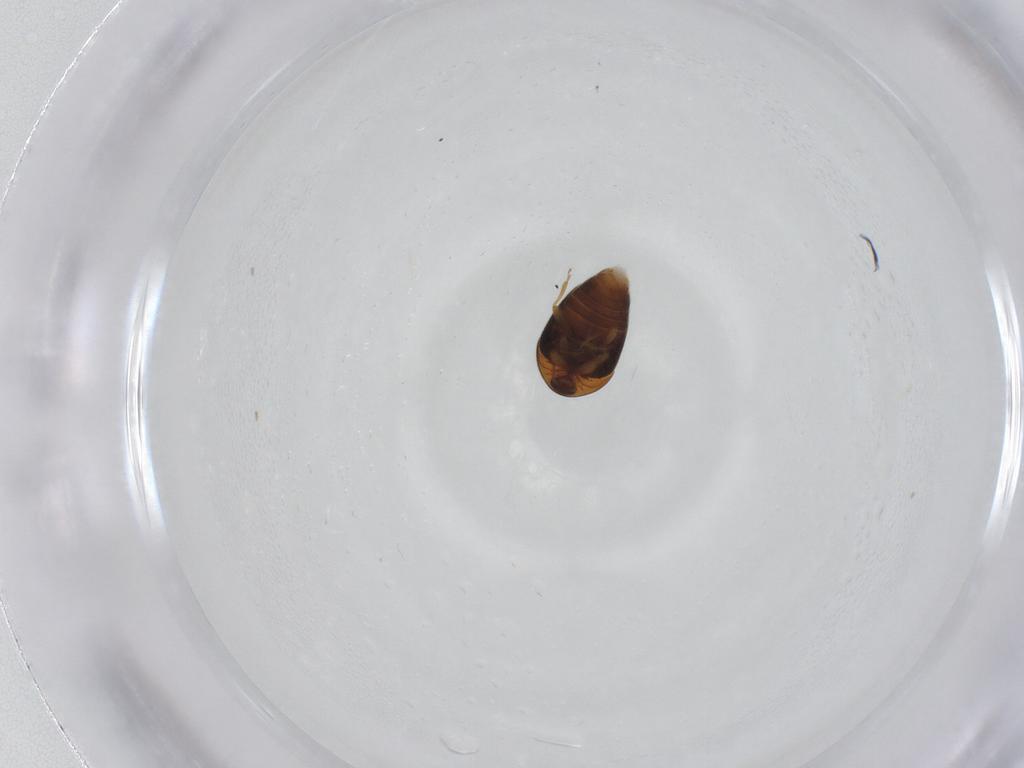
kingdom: Animalia
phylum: Arthropoda
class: Insecta
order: Coleoptera
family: Corylophidae
